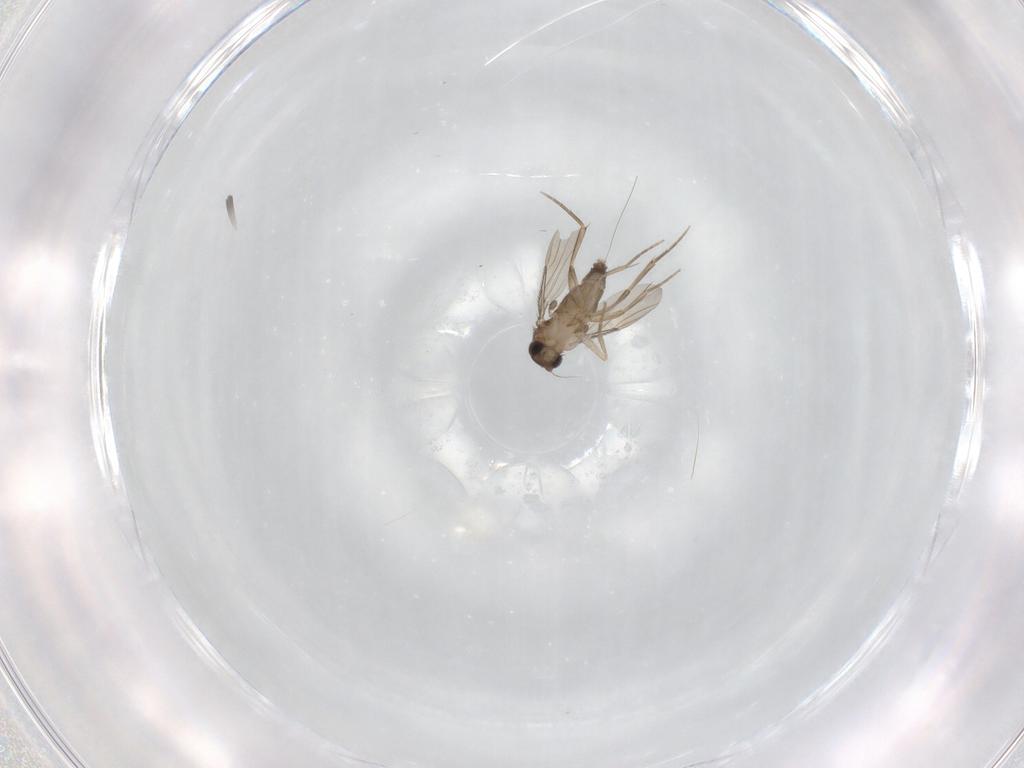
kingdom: Animalia
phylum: Arthropoda
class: Insecta
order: Diptera
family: Phoridae
